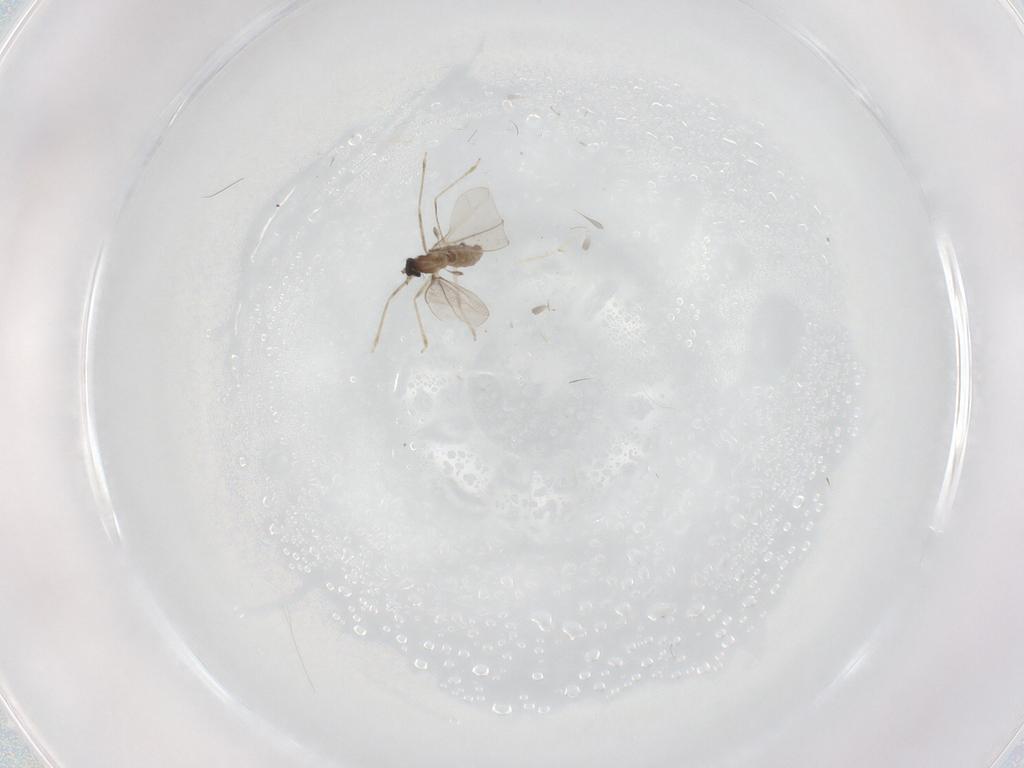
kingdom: Animalia
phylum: Arthropoda
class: Insecta
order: Diptera
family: Cecidomyiidae
